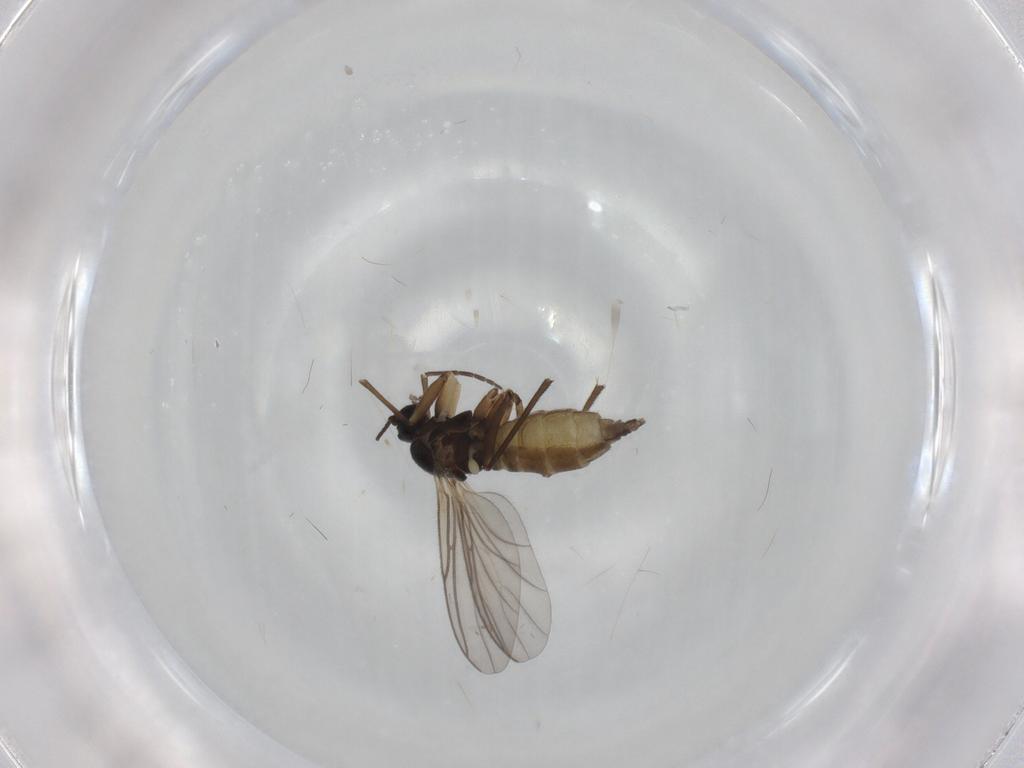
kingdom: Animalia
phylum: Arthropoda
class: Insecta
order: Diptera
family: Sciaridae
